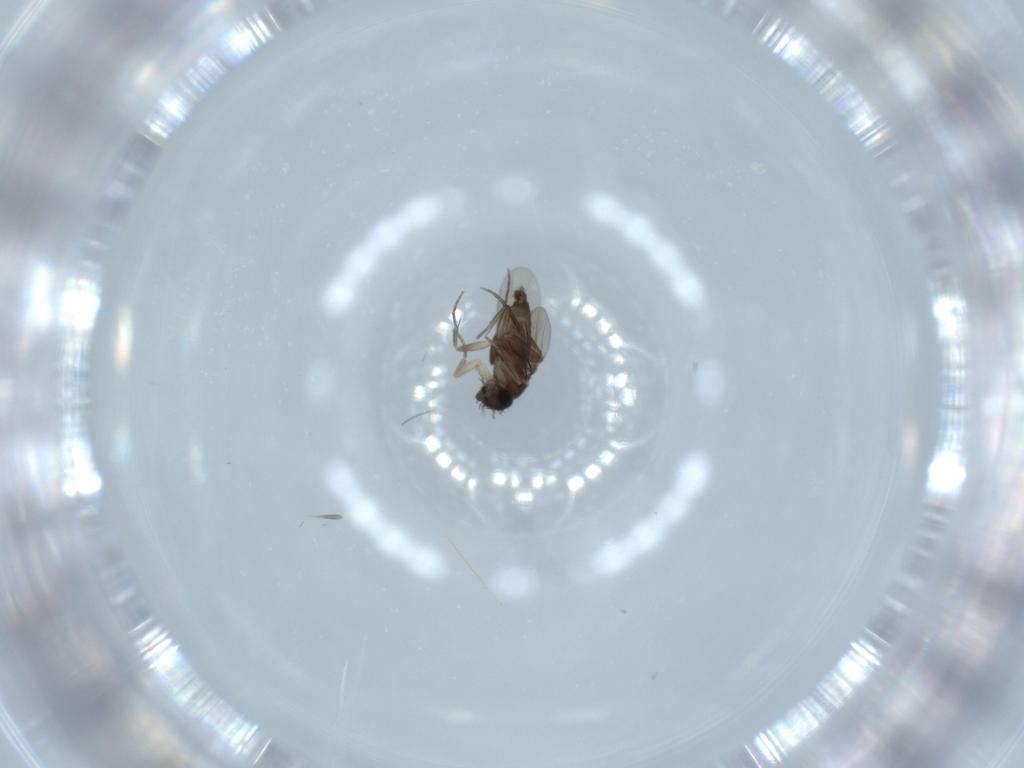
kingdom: Animalia
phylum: Arthropoda
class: Insecta
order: Diptera
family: Phoridae
